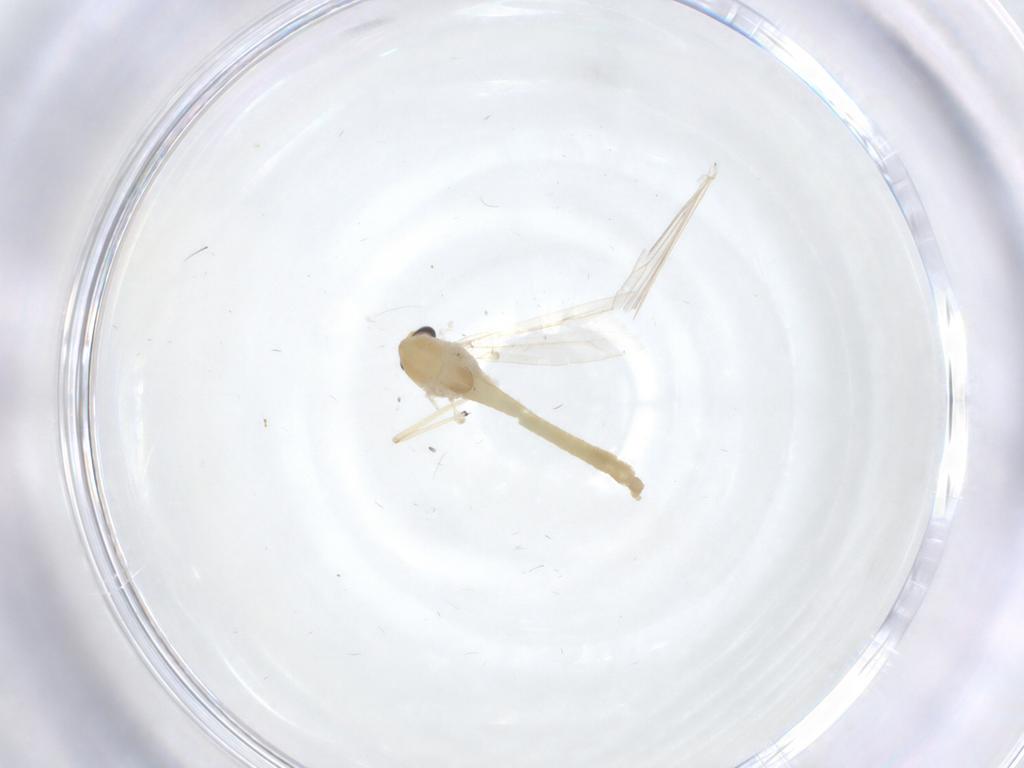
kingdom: Animalia
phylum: Arthropoda
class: Insecta
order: Diptera
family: Chironomidae
